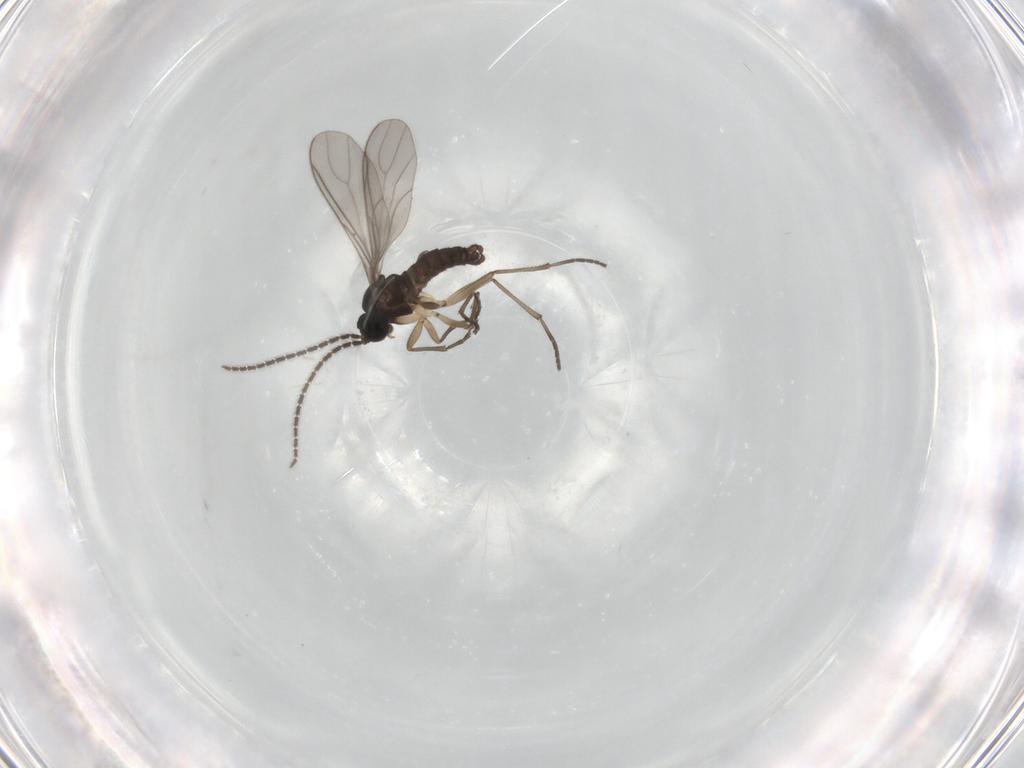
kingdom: Animalia
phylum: Arthropoda
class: Insecta
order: Diptera
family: Sciaridae
